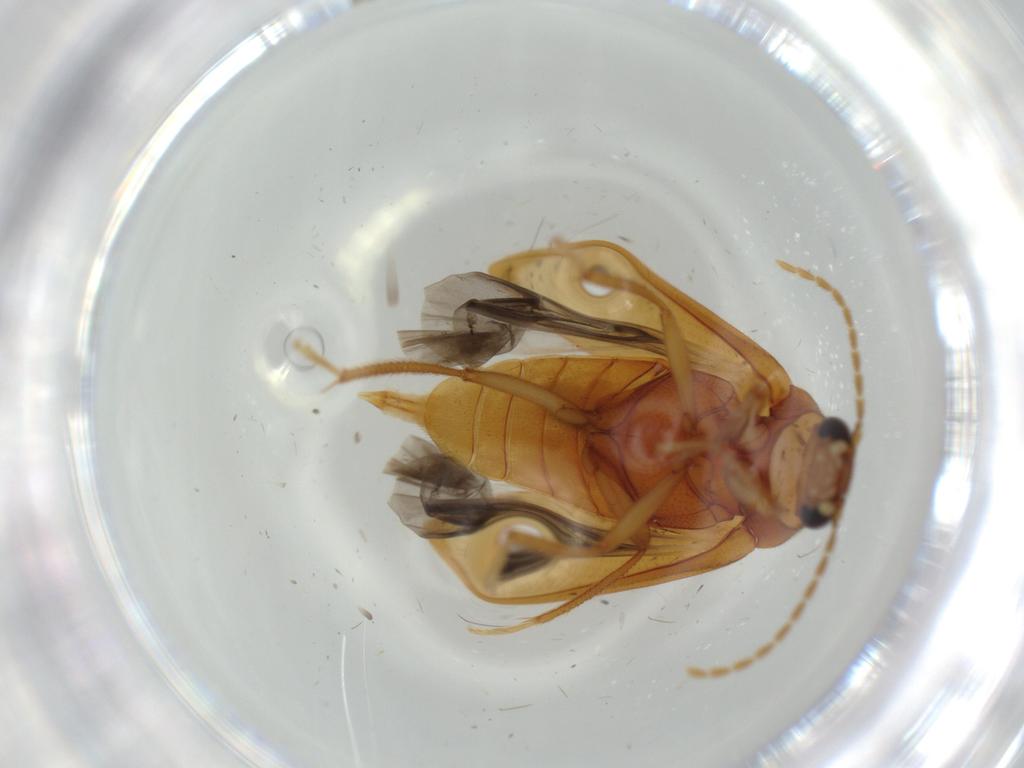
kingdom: Animalia
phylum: Arthropoda
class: Insecta
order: Coleoptera
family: Ptilodactylidae
